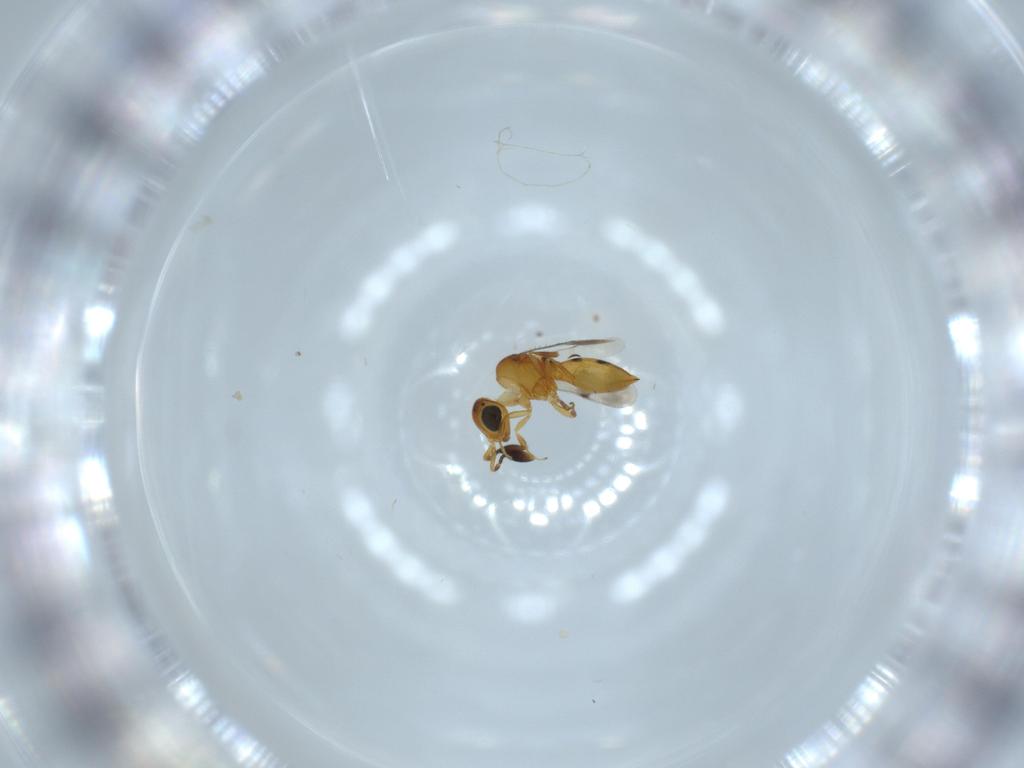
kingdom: Animalia
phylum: Arthropoda
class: Insecta
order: Hymenoptera
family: Scelionidae
